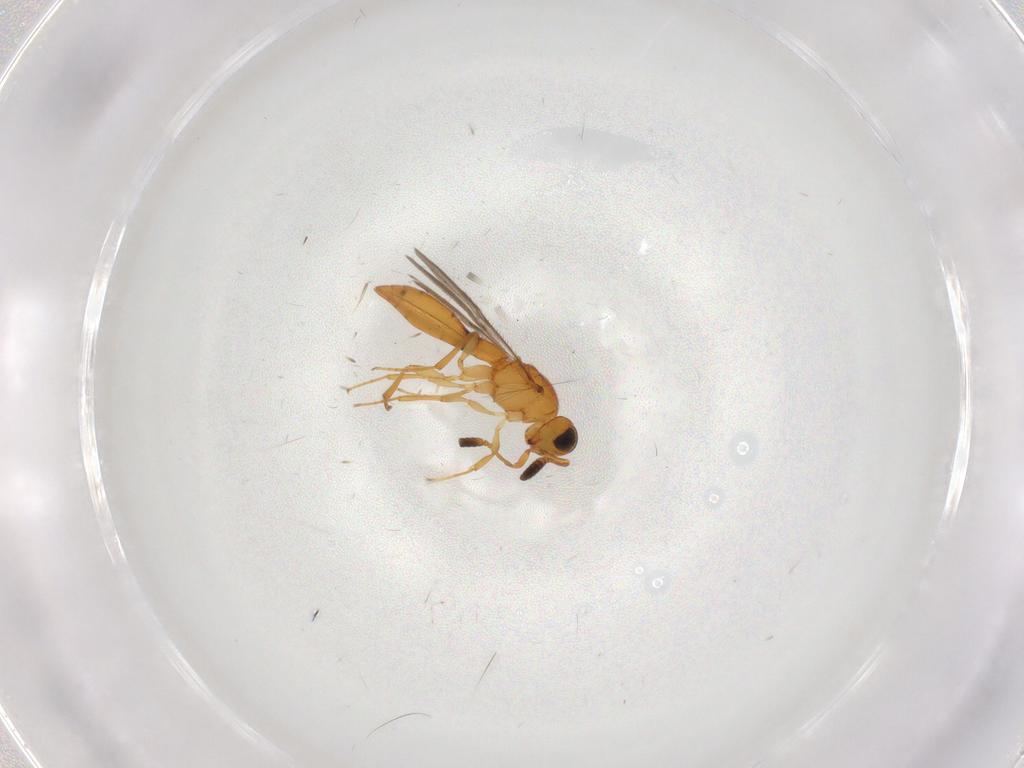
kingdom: Animalia
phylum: Arthropoda
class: Insecta
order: Hymenoptera
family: Scelionidae
